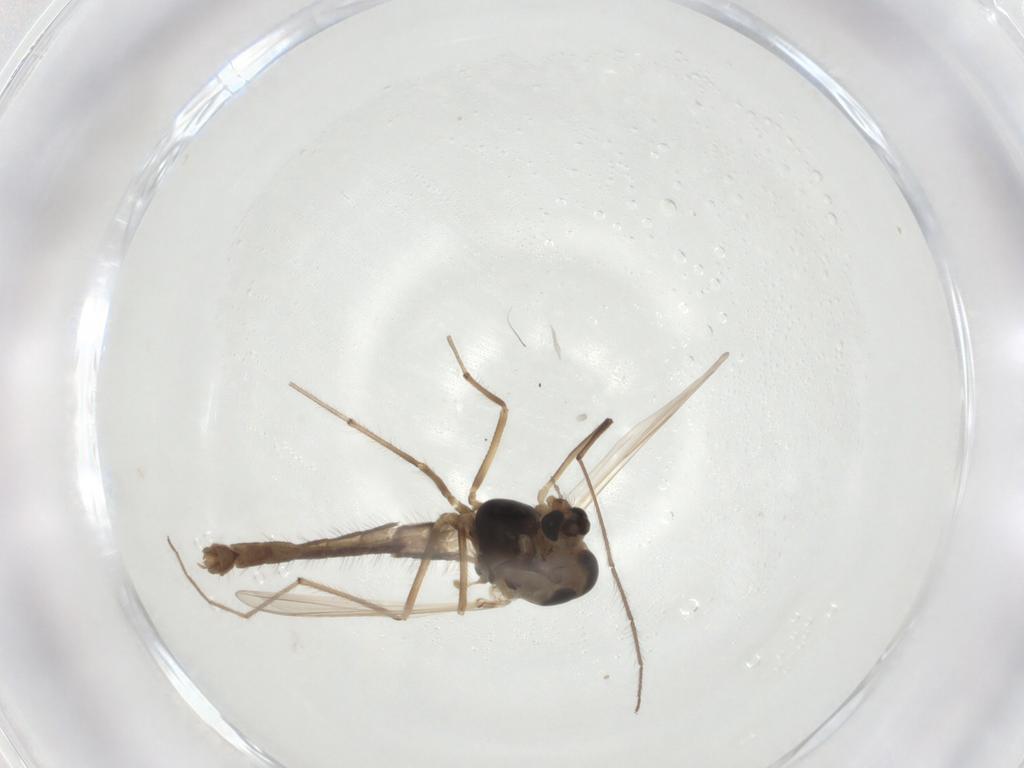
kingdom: Animalia
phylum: Arthropoda
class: Insecta
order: Diptera
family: Chironomidae
